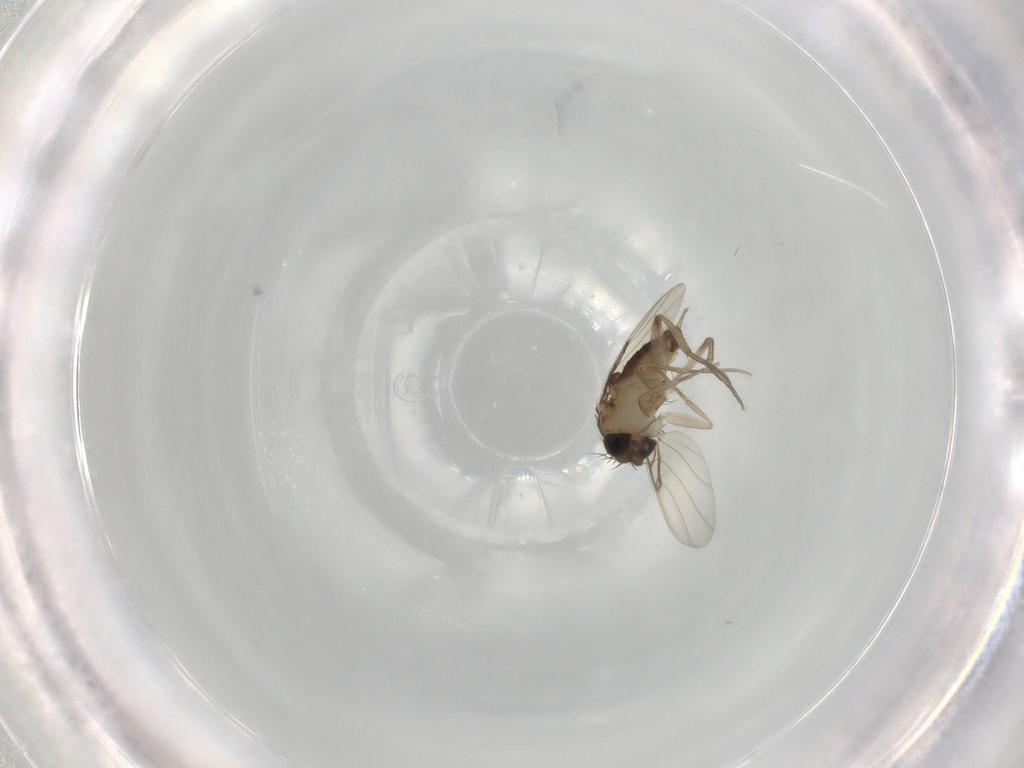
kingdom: Animalia
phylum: Arthropoda
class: Insecta
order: Diptera
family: Phoridae
